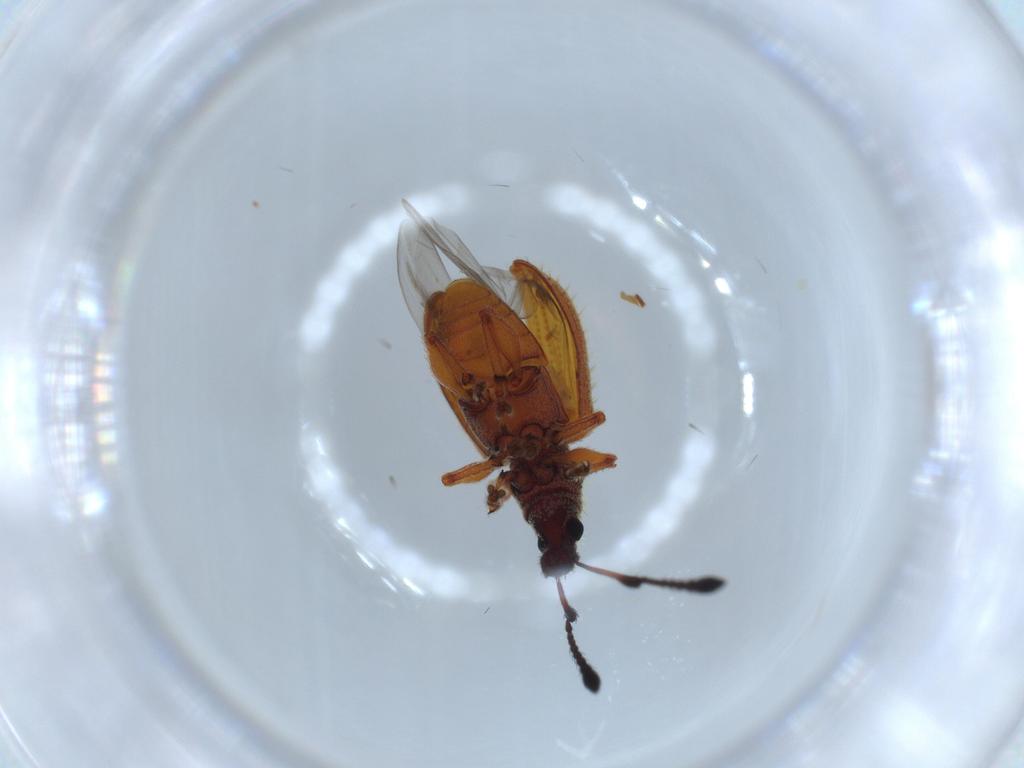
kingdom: Animalia
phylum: Arthropoda
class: Insecta
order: Coleoptera
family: Curculionidae
